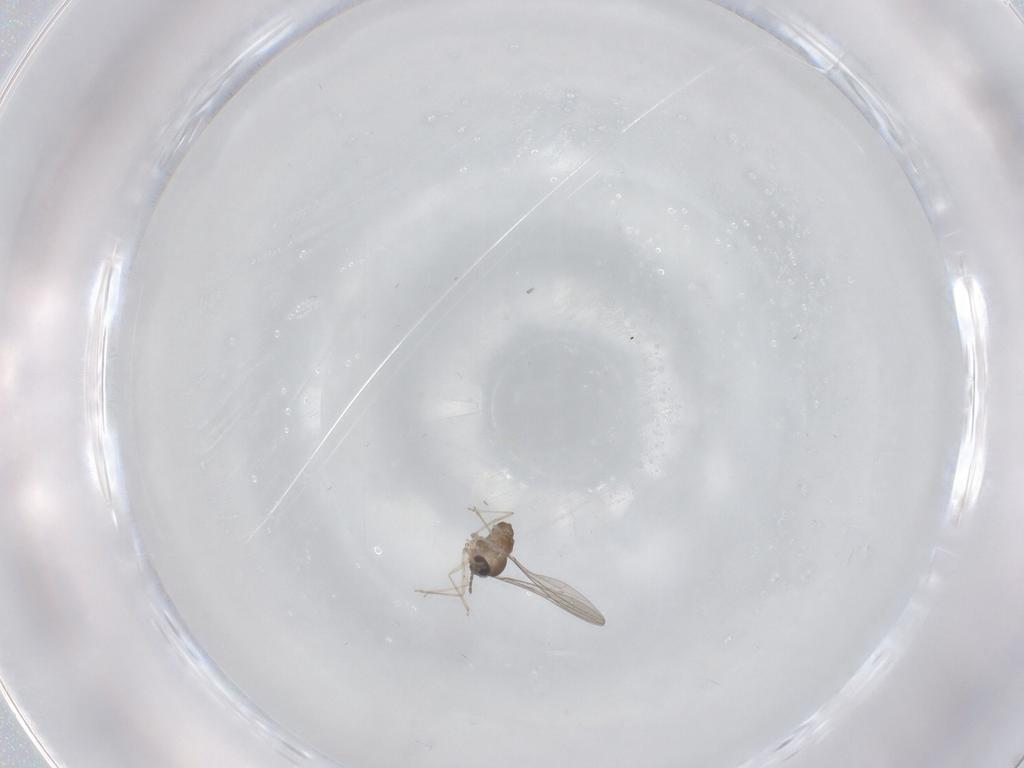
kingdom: Animalia
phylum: Arthropoda
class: Insecta
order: Diptera
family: Cecidomyiidae
